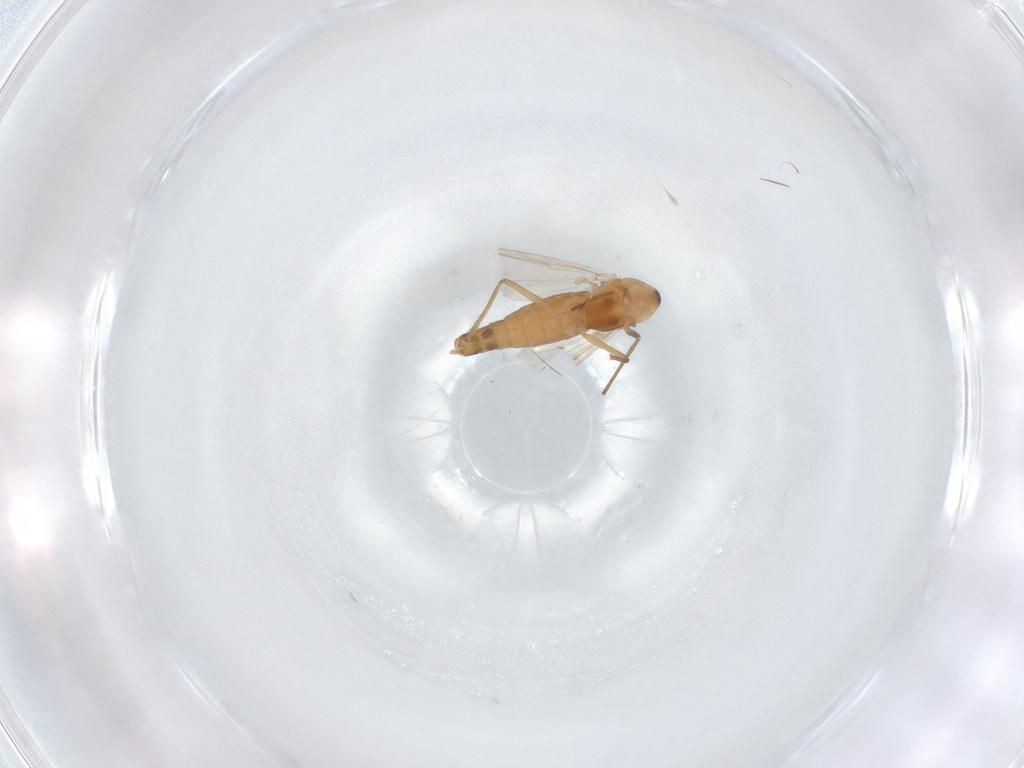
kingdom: Animalia
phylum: Arthropoda
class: Insecta
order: Diptera
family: Chironomidae
